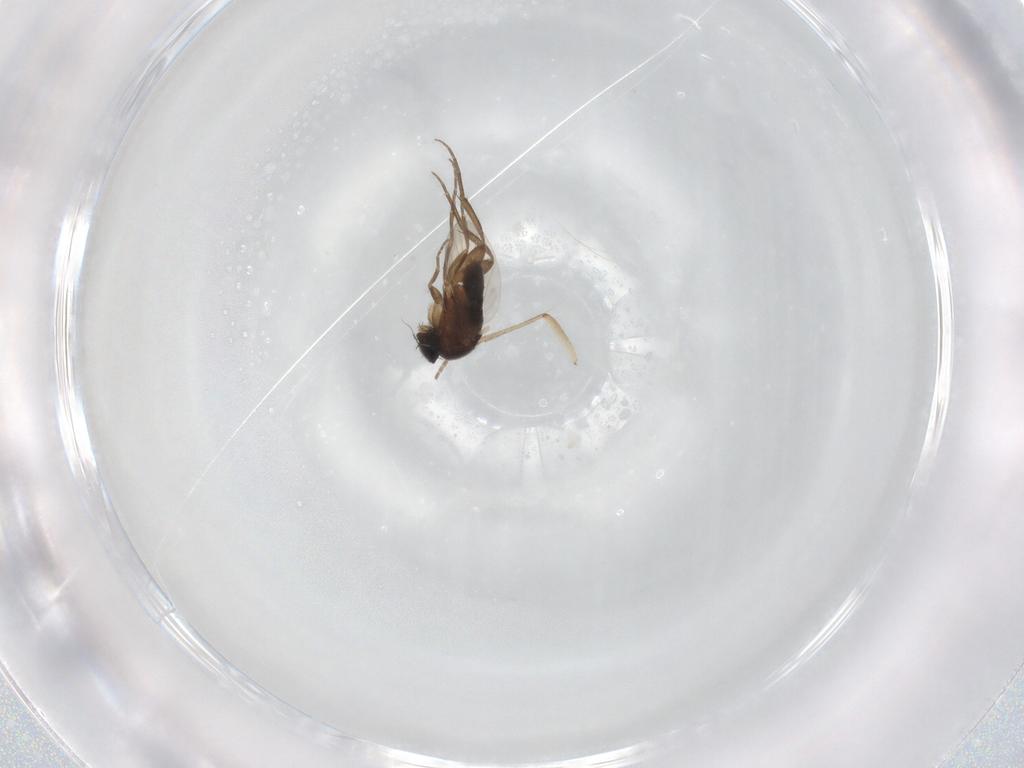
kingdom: Animalia
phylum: Arthropoda
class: Insecta
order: Diptera
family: Phoridae
